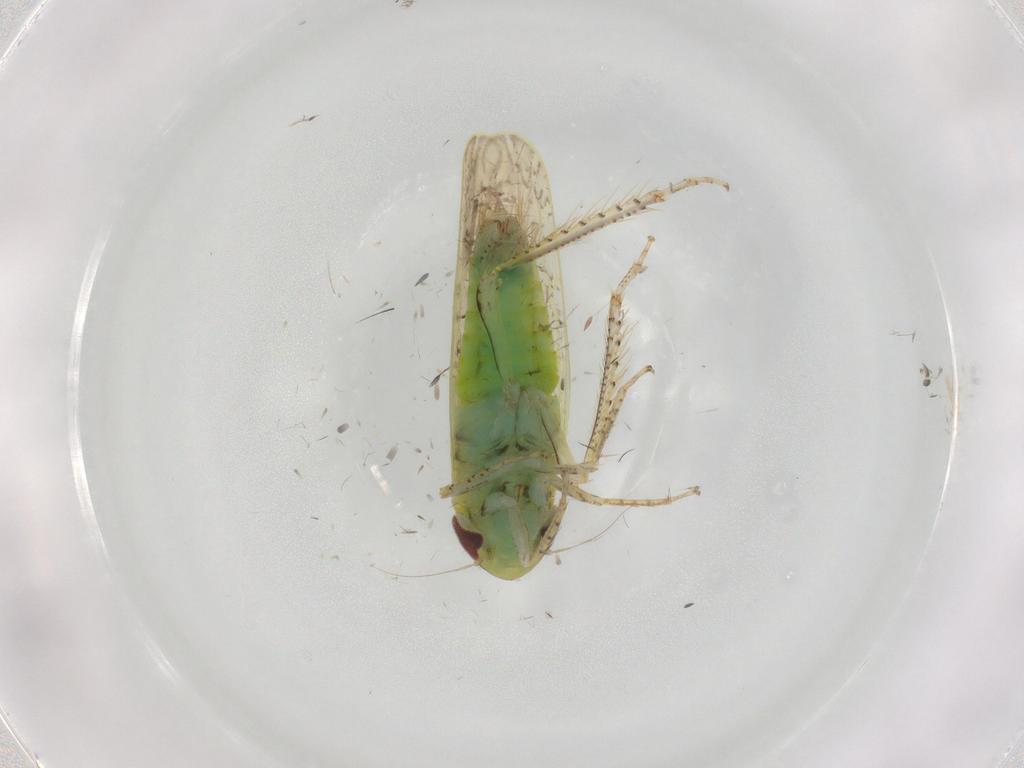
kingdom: Animalia
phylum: Arthropoda
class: Insecta
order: Hemiptera
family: Cicadellidae
